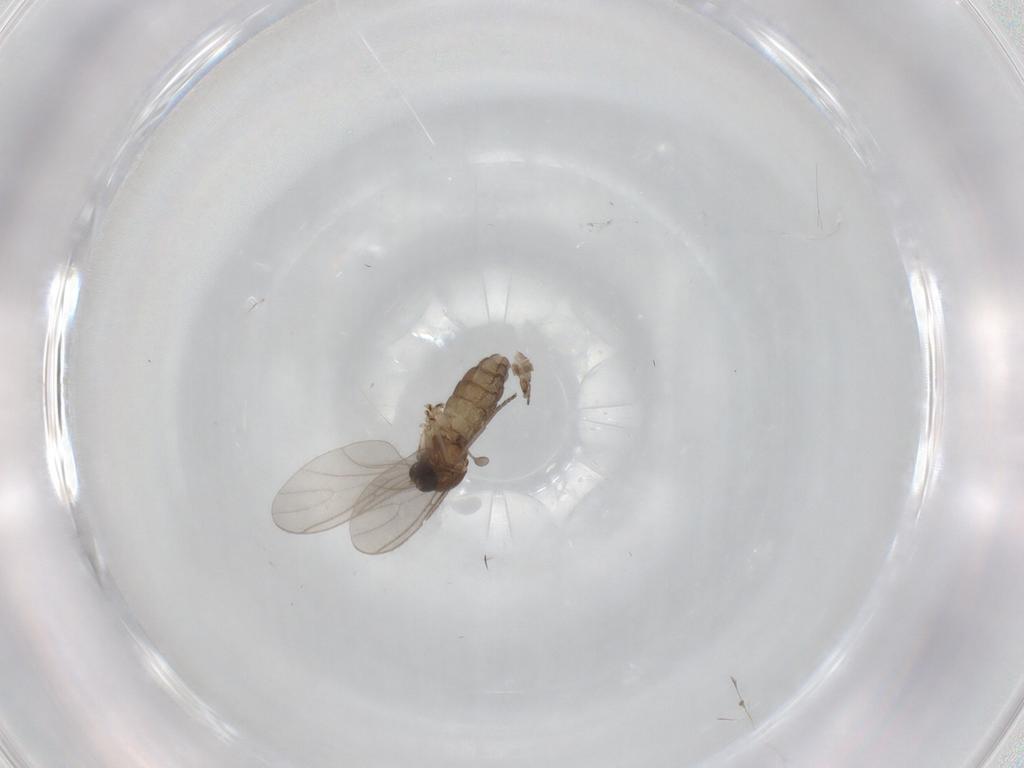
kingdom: Animalia
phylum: Arthropoda
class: Insecta
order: Diptera
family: Sciaridae
